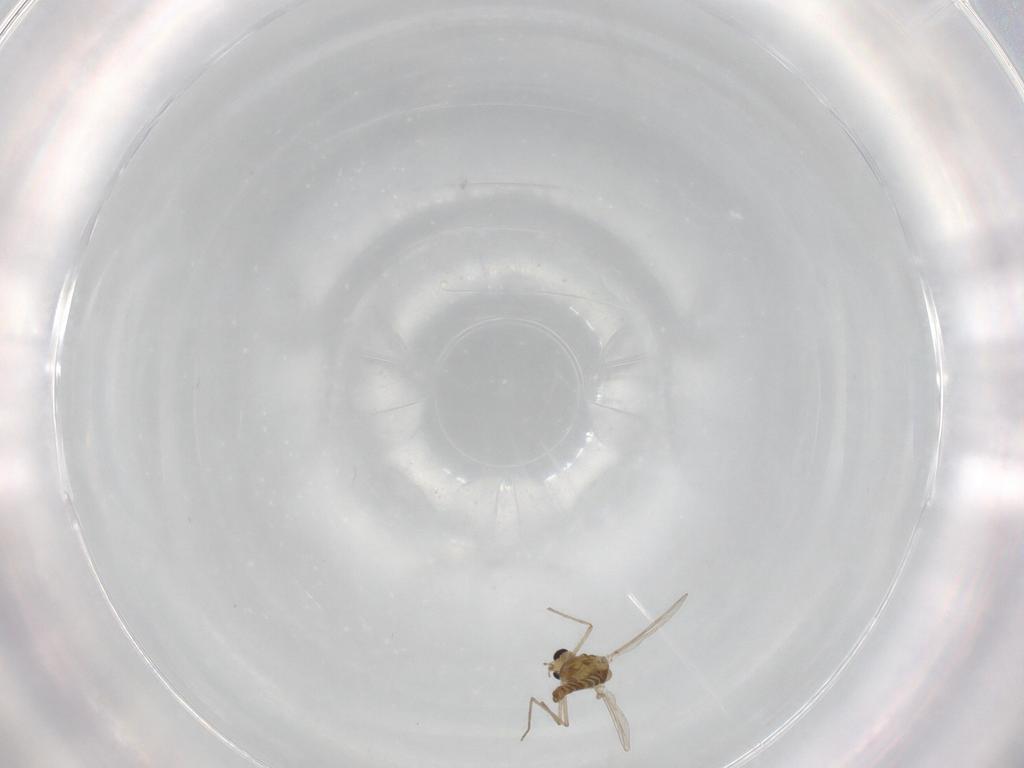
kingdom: Animalia
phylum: Arthropoda
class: Insecta
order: Diptera
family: Chironomidae
